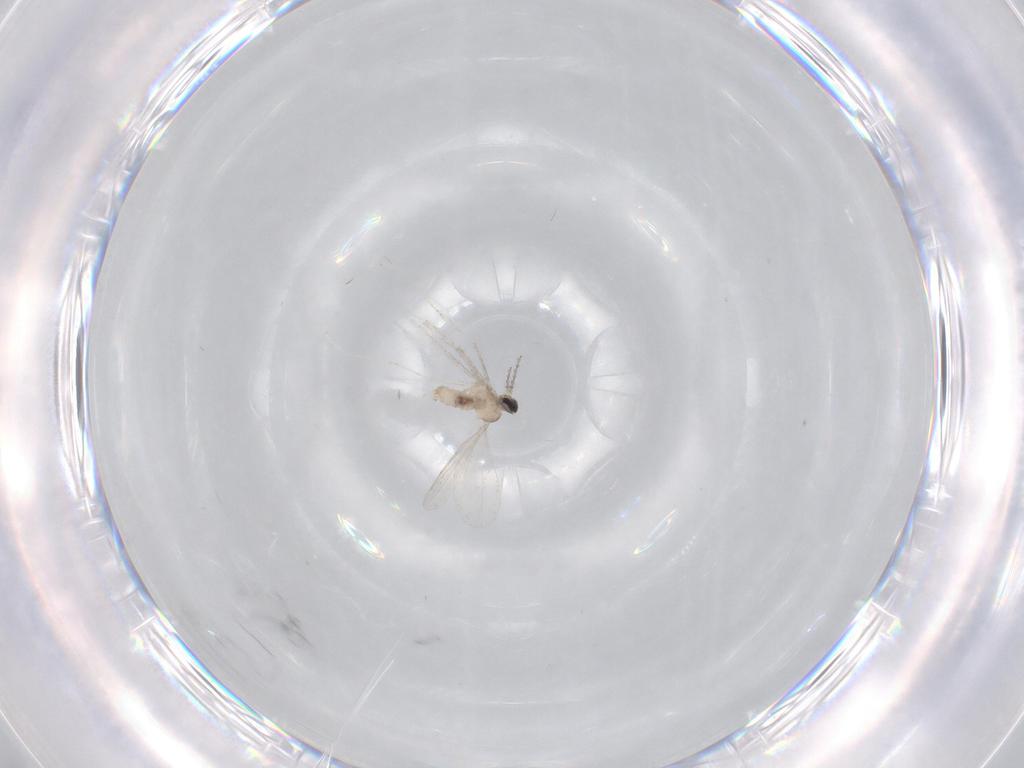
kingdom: Animalia
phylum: Arthropoda
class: Insecta
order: Diptera
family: Cecidomyiidae
